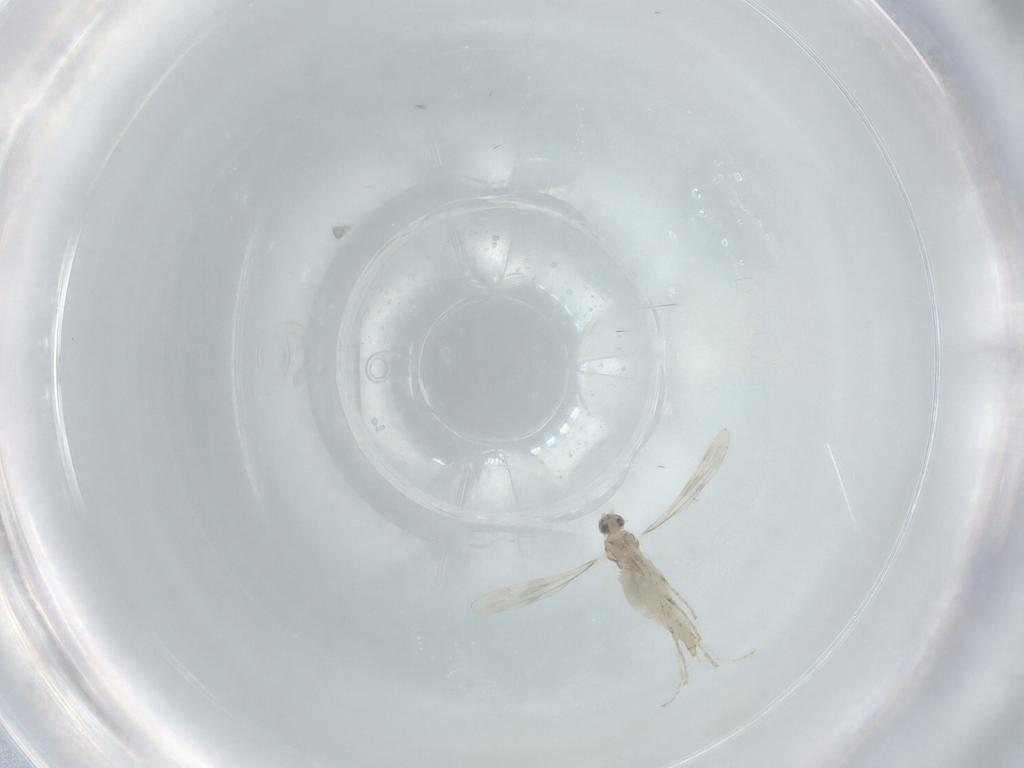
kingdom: Animalia
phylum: Arthropoda
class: Insecta
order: Diptera
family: Cecidomyiidae
